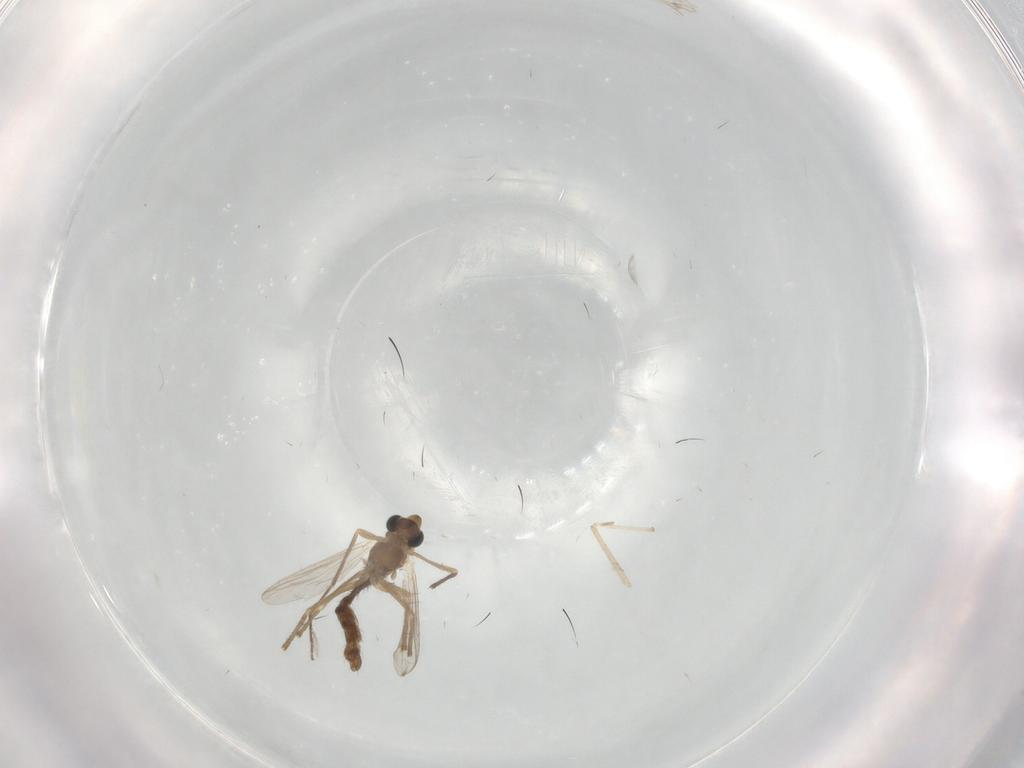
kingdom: Animalia
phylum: Arthropoda
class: Insecta
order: Diptera
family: Chironomidae
